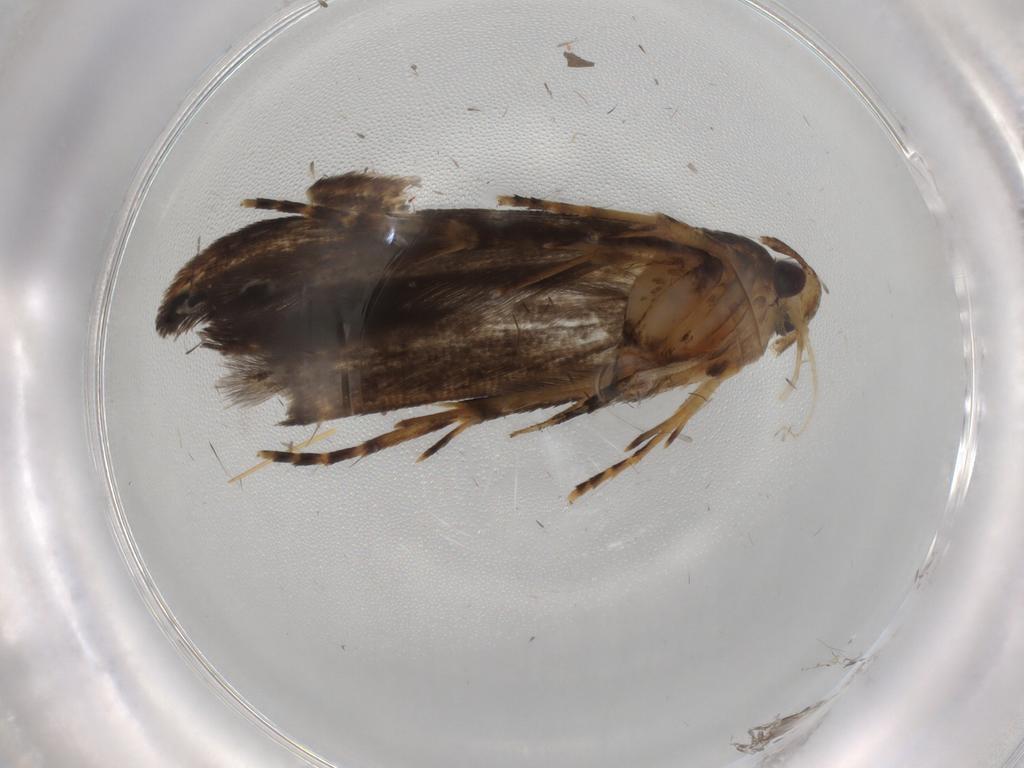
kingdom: Animalia
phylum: Arthropoda
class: Insecta
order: Lepidoptera
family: Cosmopterigidae
